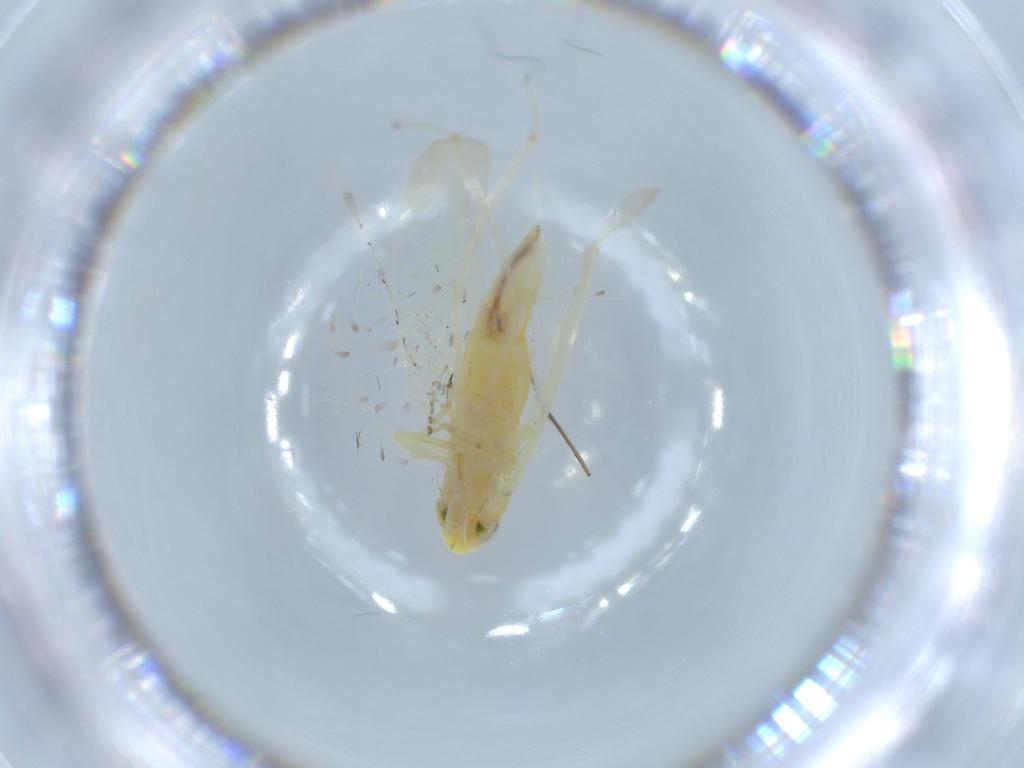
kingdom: Animalia
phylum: Arthropoda
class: Insecta
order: Hemiptera
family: Cicadellidae
